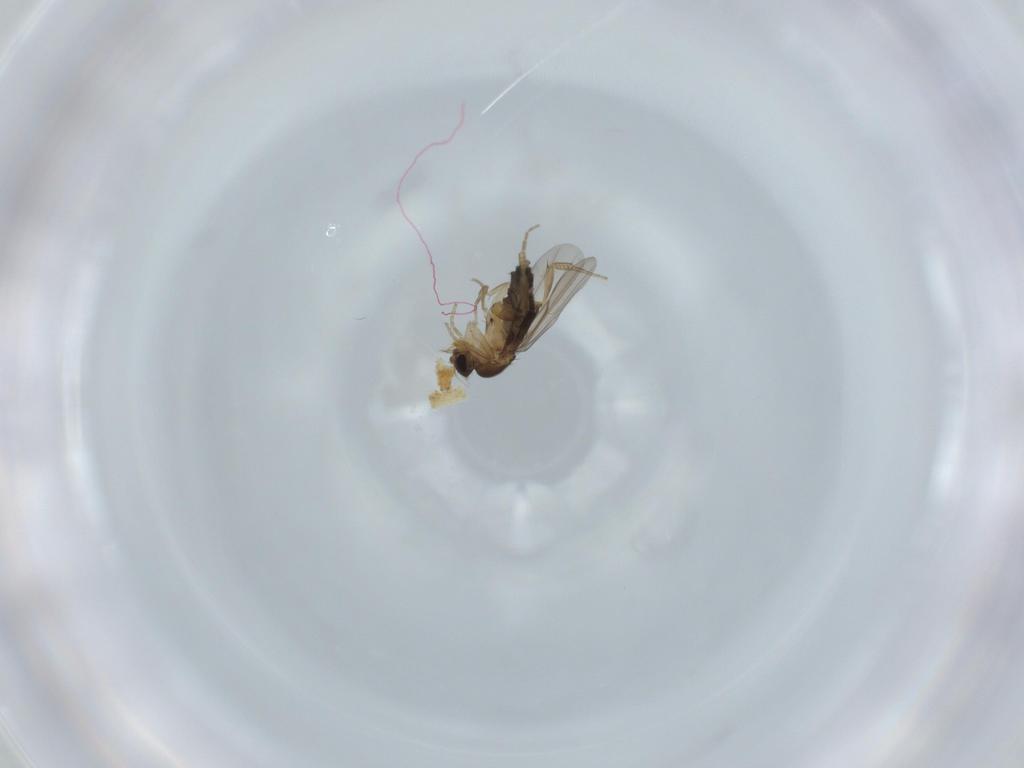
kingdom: Animalia
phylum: Arthropoda
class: Insecta
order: Diptera
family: Phoridae
